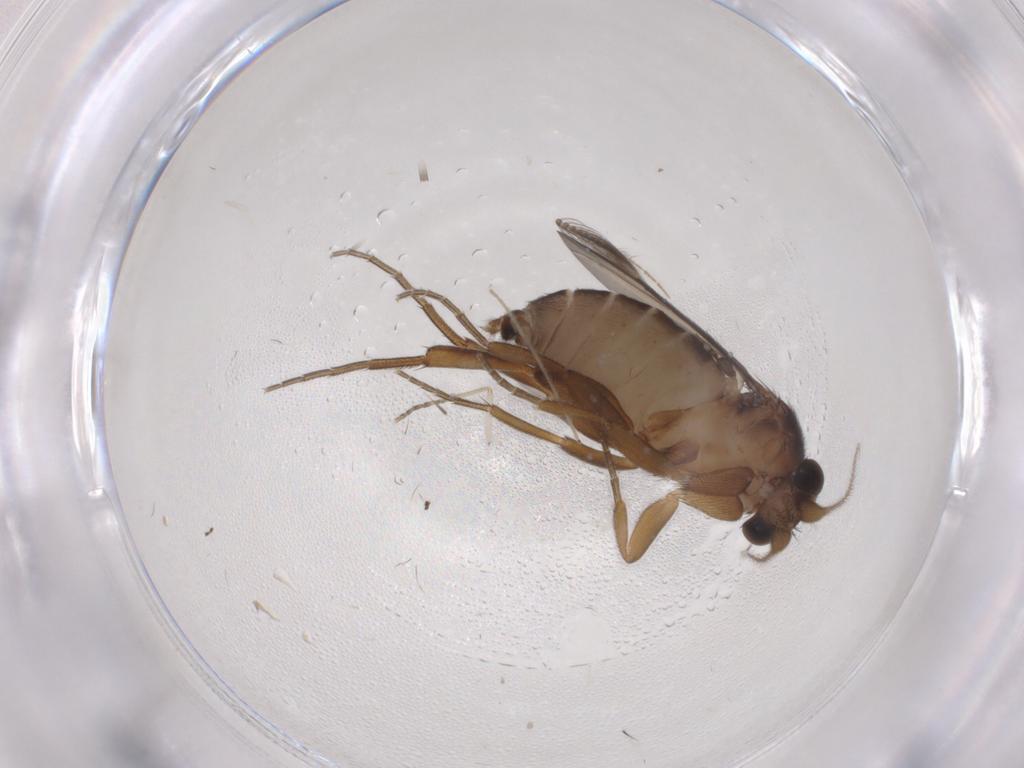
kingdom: Animalia
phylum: Arthropoda
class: Insecta
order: Diptera
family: Phoridae
